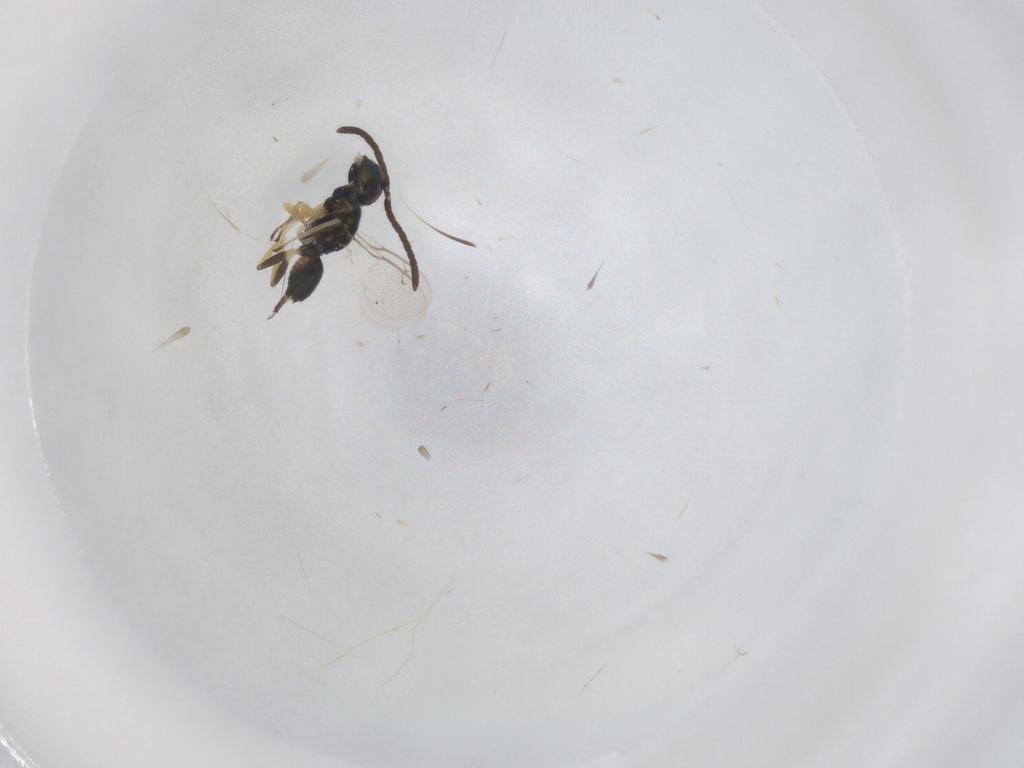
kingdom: Animalia
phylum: Arthropoda
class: Insecta
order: Hymenoptera
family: Eupelmidae
